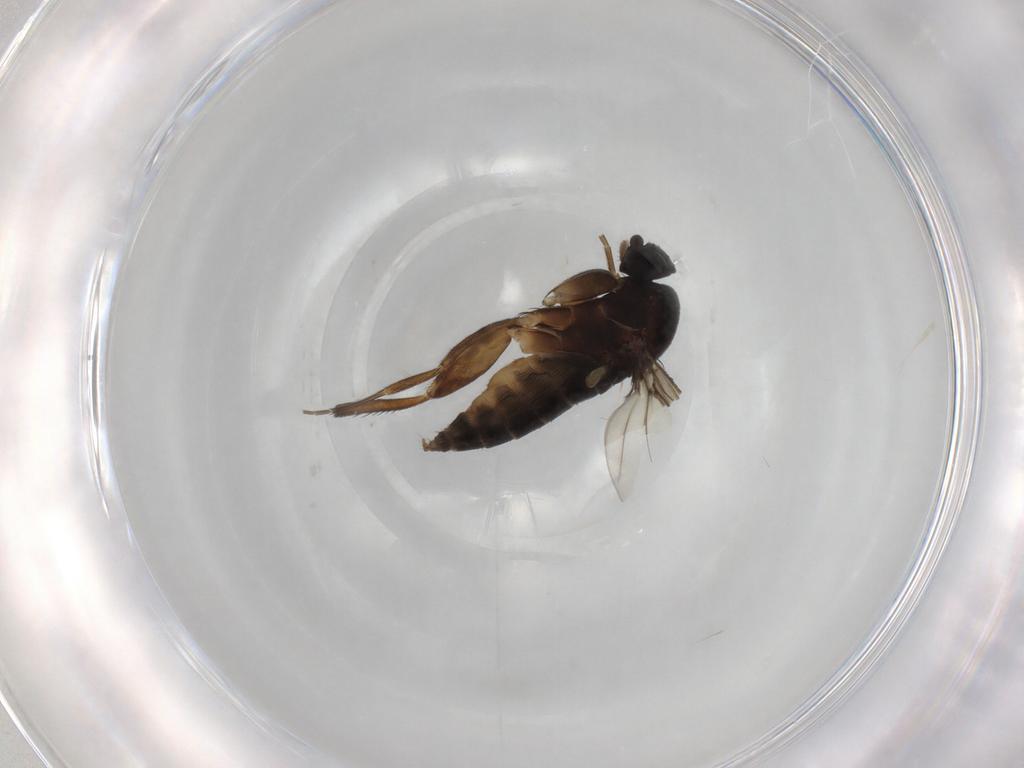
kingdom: Animalia
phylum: Arthropoda
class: Insecta
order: Diptera
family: Phoridae
